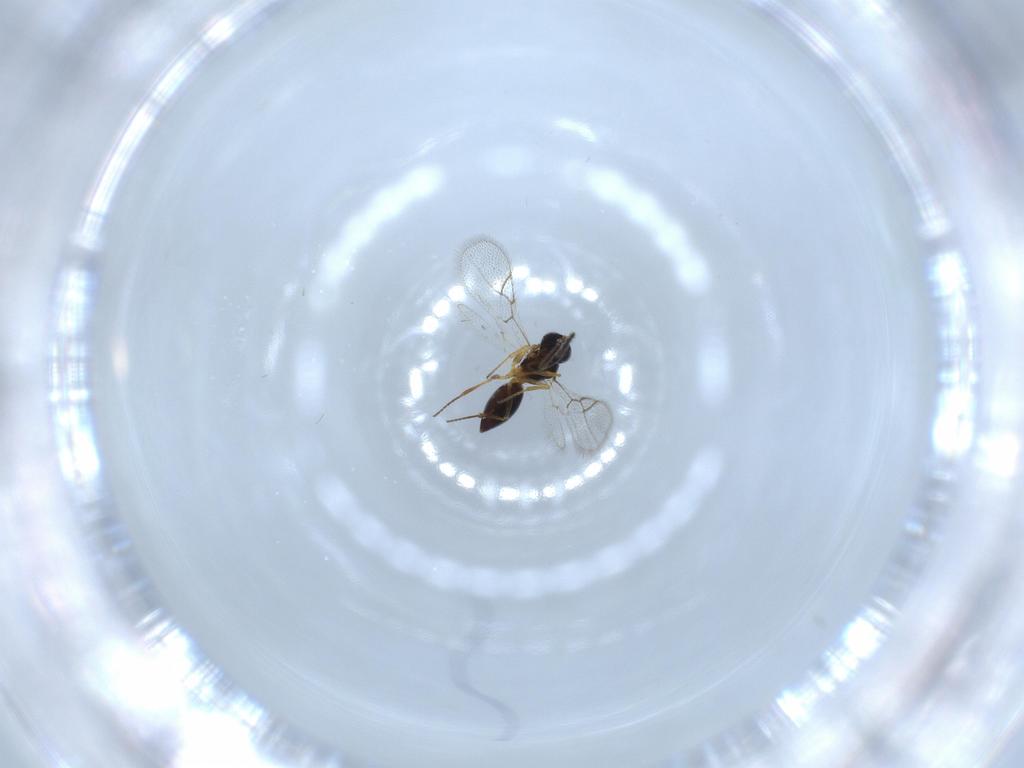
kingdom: Animalia
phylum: Arthropoda
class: Insecta
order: Hymenoptera
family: Figitidae
